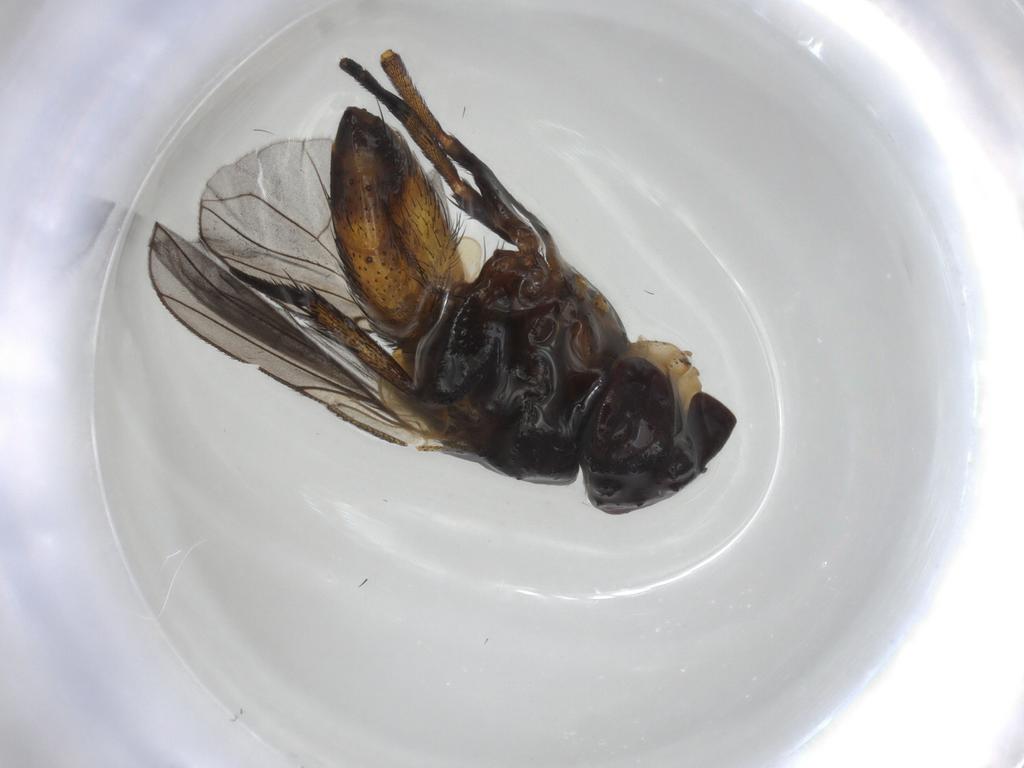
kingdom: Animalia
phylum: Arthropoda
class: Insecta
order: Diptera
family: Tachinidae
